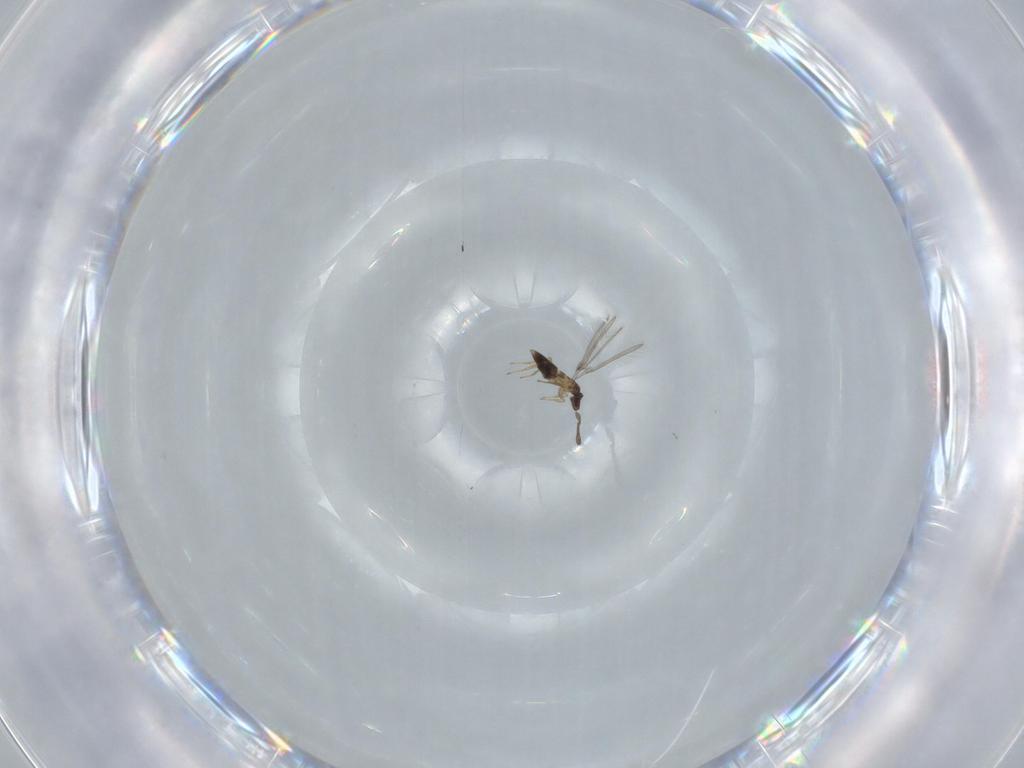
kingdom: Animalia
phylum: Arthropoda
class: Insecta
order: Hymenoptera
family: Mymaridae
